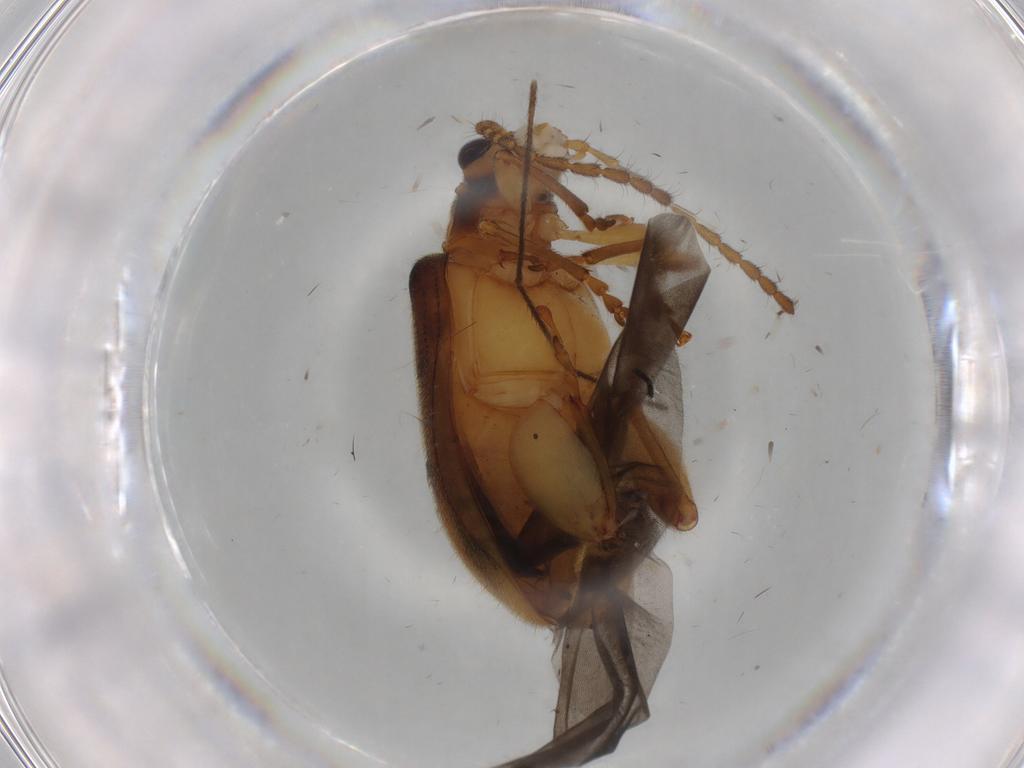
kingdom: Animalia
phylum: Arthropoda
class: Insecta
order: Coleoptera
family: Chrysomelidae
